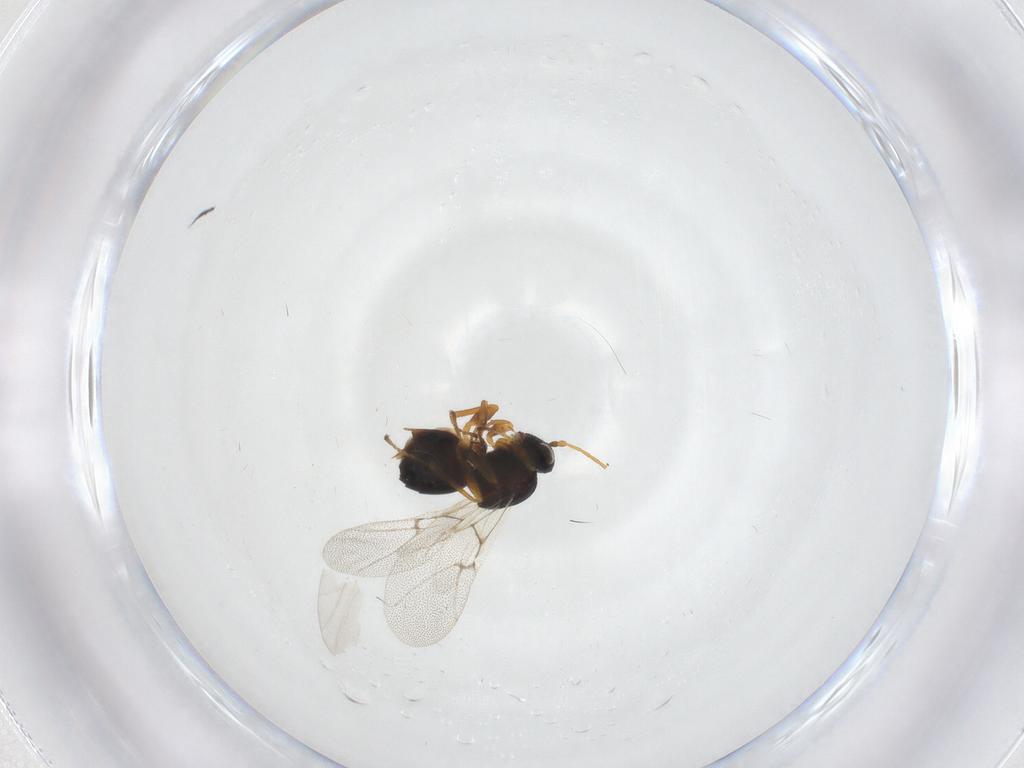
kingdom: Animalia
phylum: Arthropoda
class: Insecta
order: Hymenoptera
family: Cynipidae
